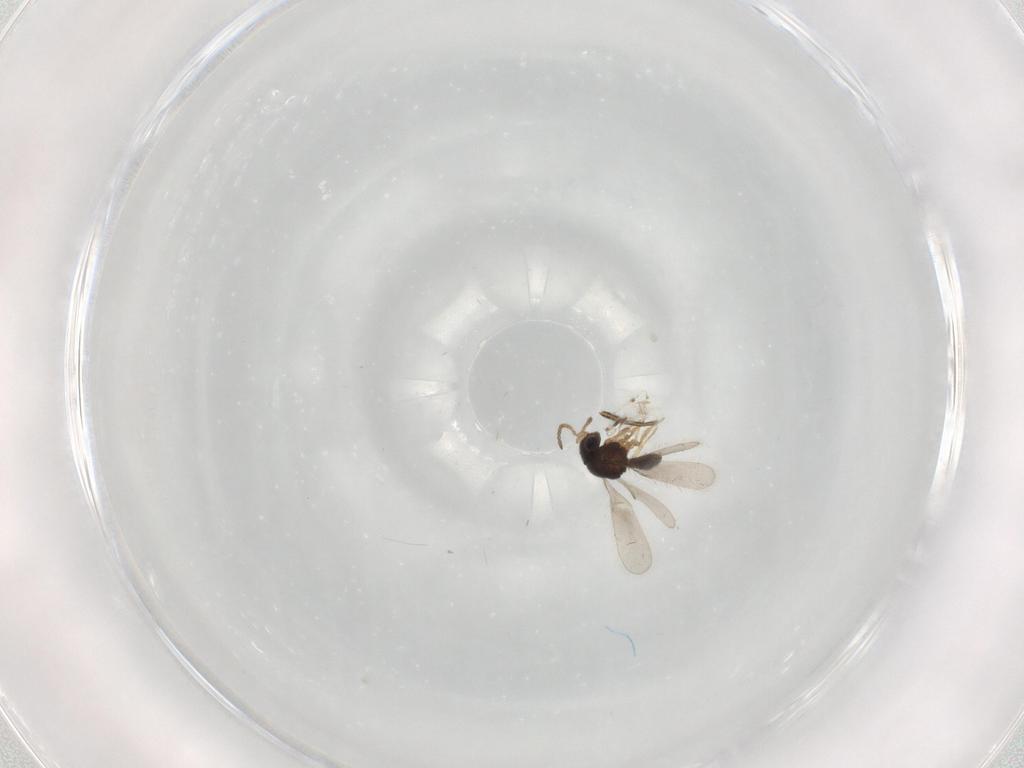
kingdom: Animalia
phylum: Arthropoda
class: Insecta
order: Hymenoptera
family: Scelionidae
